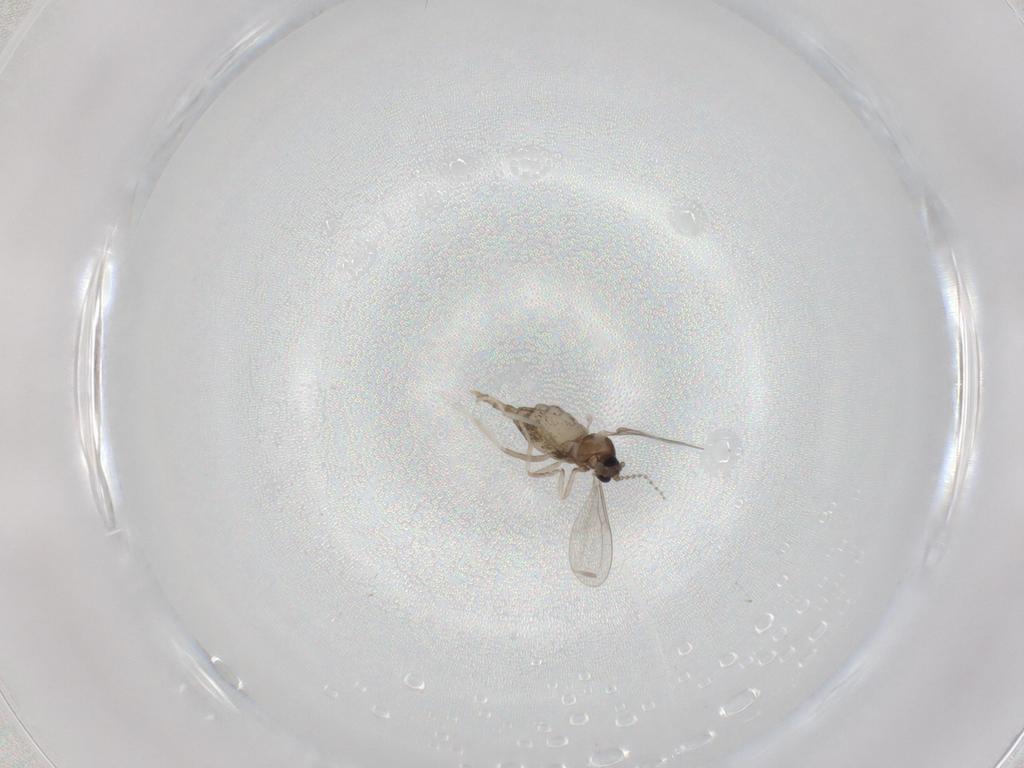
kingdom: Animalia
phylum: Arthropoda
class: Insecta
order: Diptera
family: Cecidomyiidae
